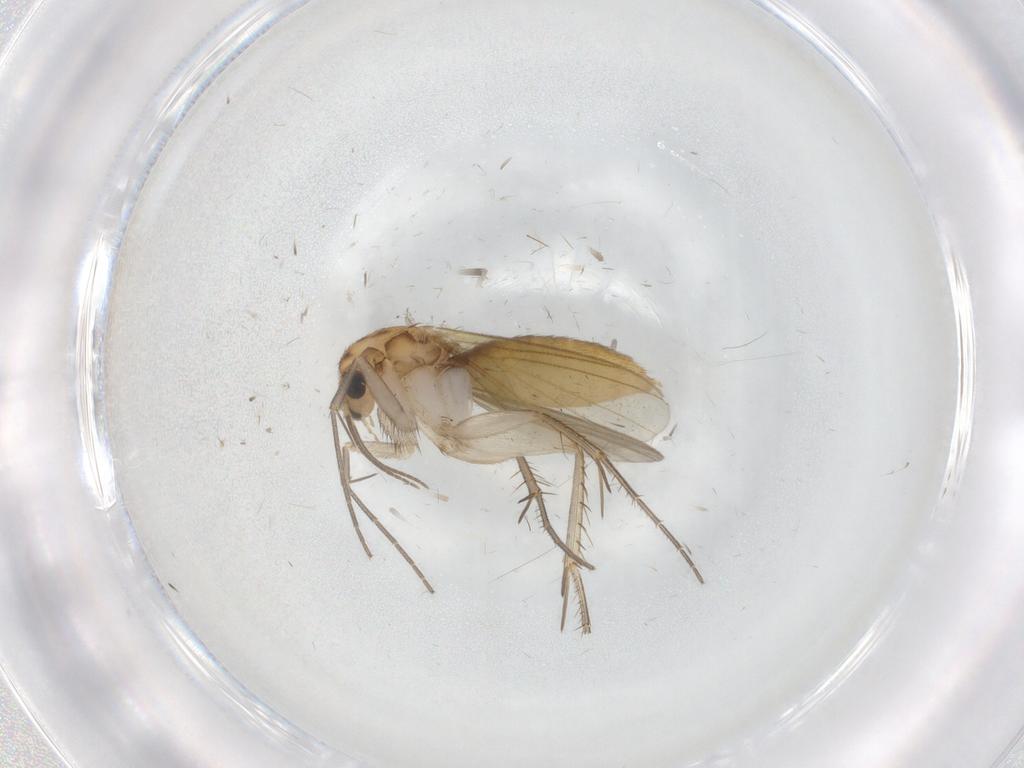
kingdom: Animalia
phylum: Arthropoda
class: Insecta
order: Diptera
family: Mycetophilidae
